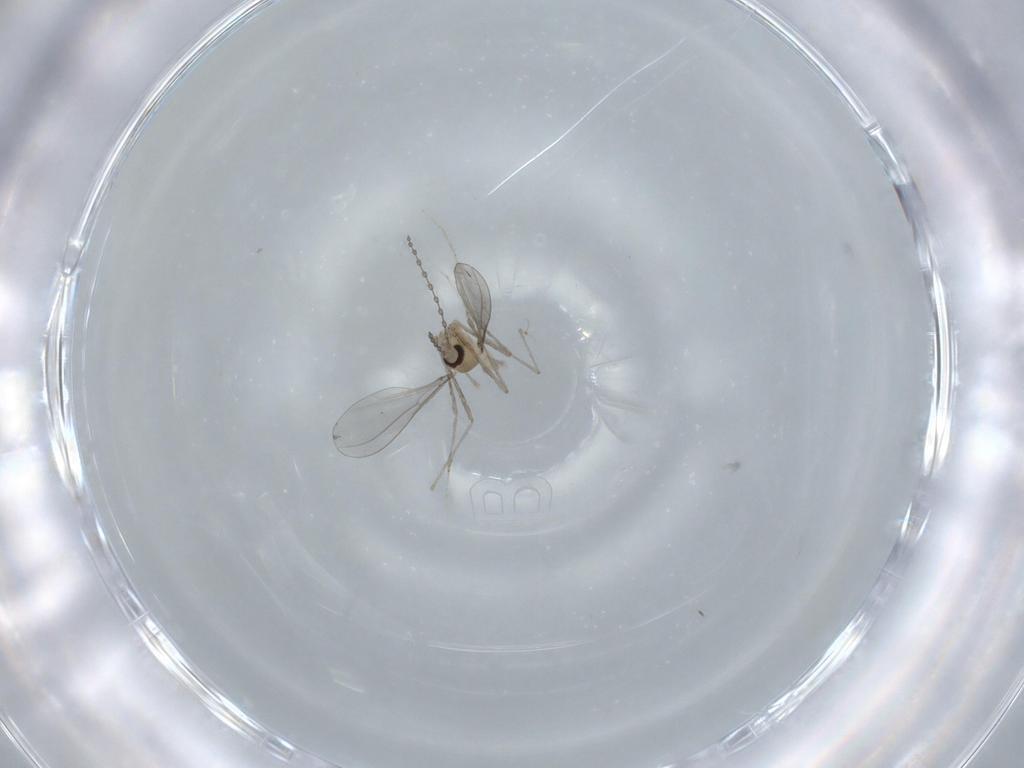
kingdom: Animalia
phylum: Arthropoda
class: Insecta
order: Diptera
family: Cecidomyiidae
